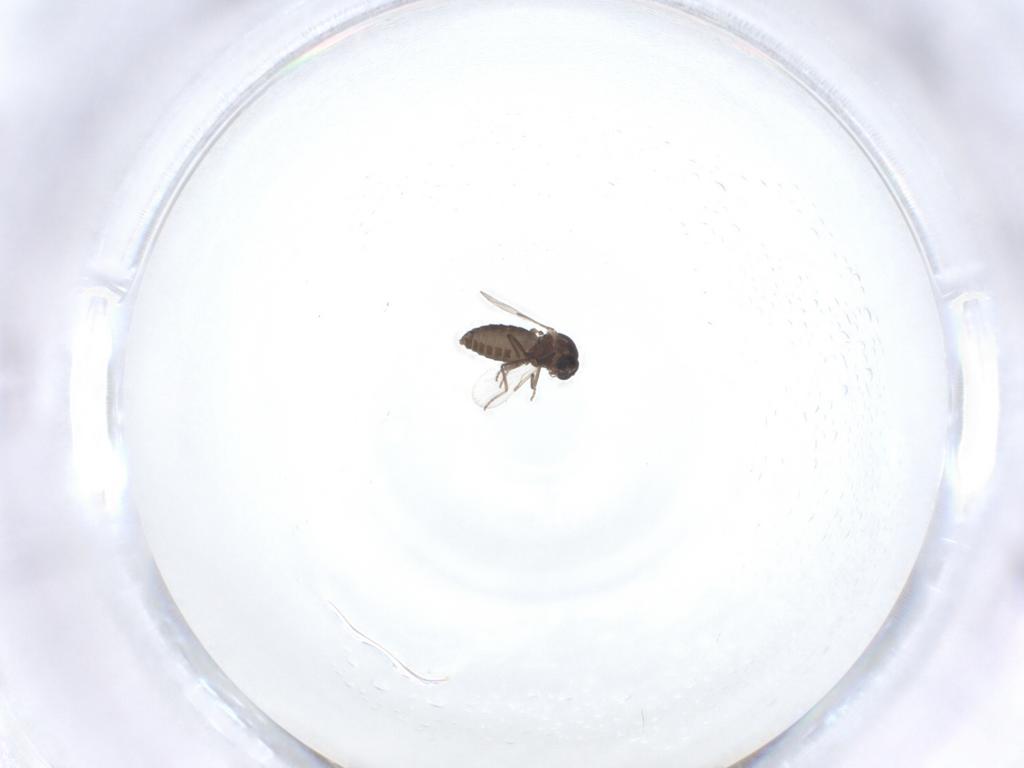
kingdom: Animalia
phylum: Arthropoda
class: Insecta
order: Diptera
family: Ceratopogonidae
